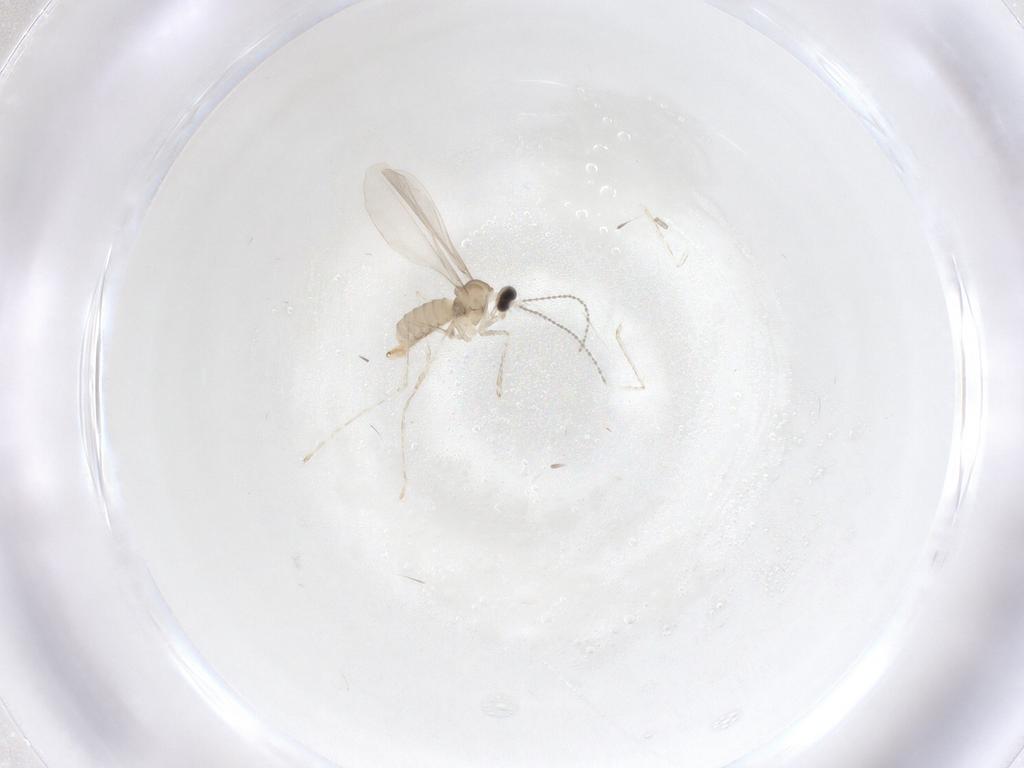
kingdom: Animalia
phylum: Arthropoda
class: Insecta
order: Diptera
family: Cecidomyiidae
